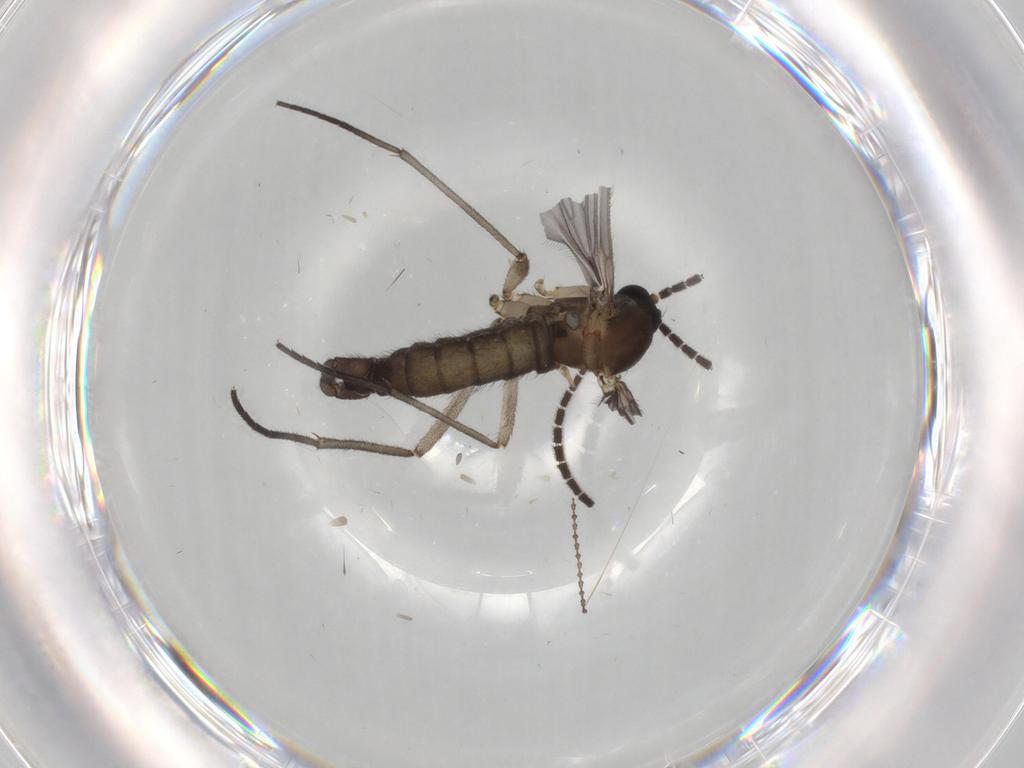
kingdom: Animalia
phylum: Arthropoda
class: Insecta
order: Diptera
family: Sciaridae
